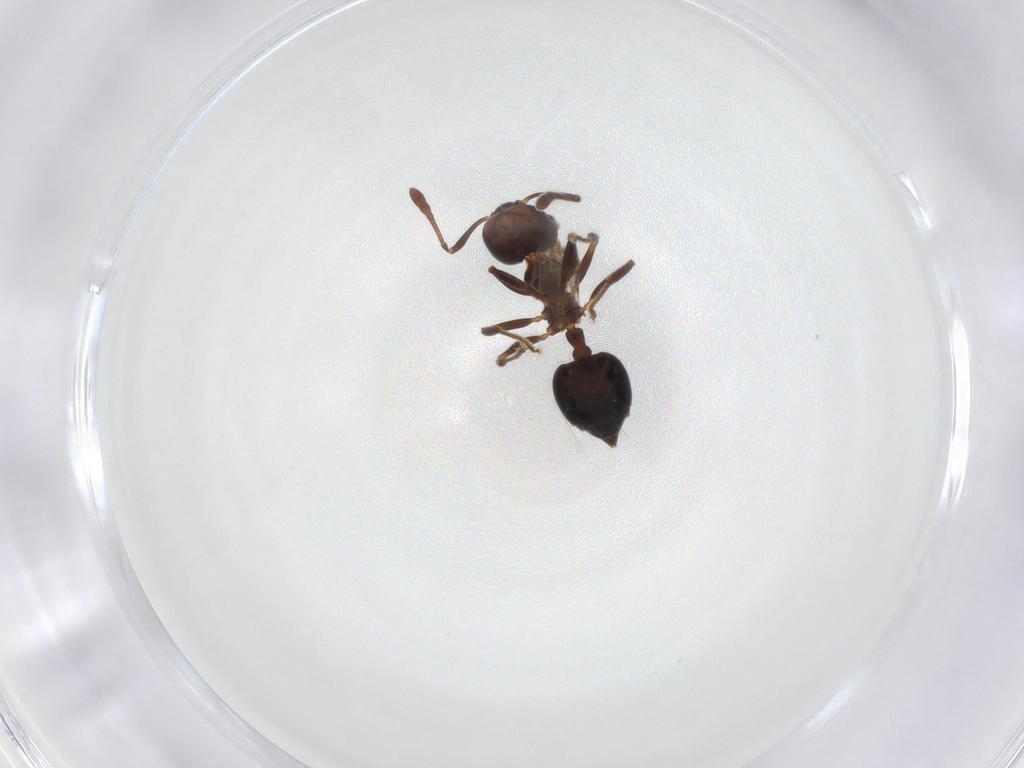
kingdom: Animalia
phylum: Arthropoda
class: Insecta
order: Hymenoptera
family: Formicidae
